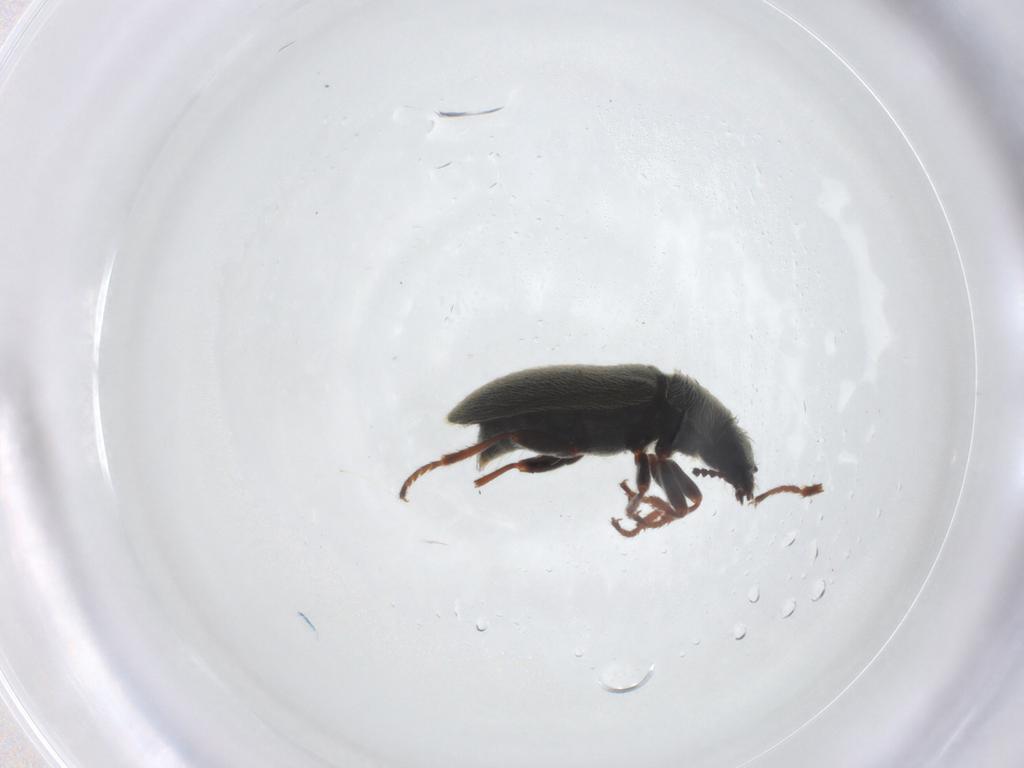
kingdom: Animalia
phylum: Arthropoda
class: Insecta
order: Coleoptera
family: Melyridae
